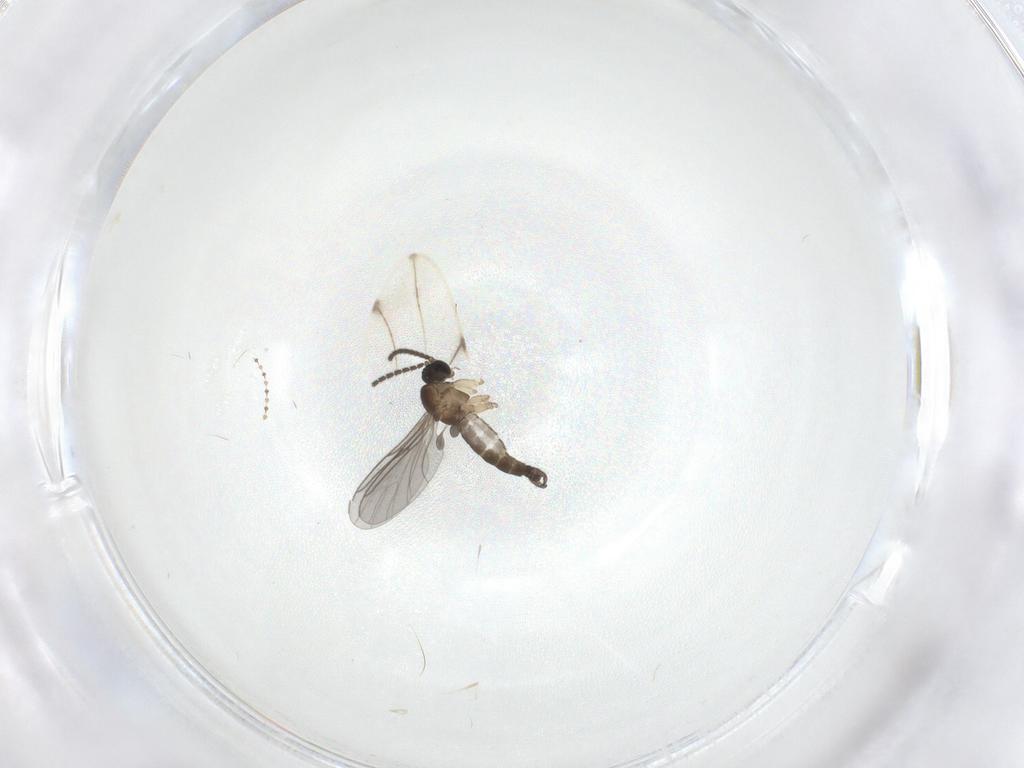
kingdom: Animalia
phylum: Arthropoda
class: Insecta
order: Diptera
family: Sciaridae
